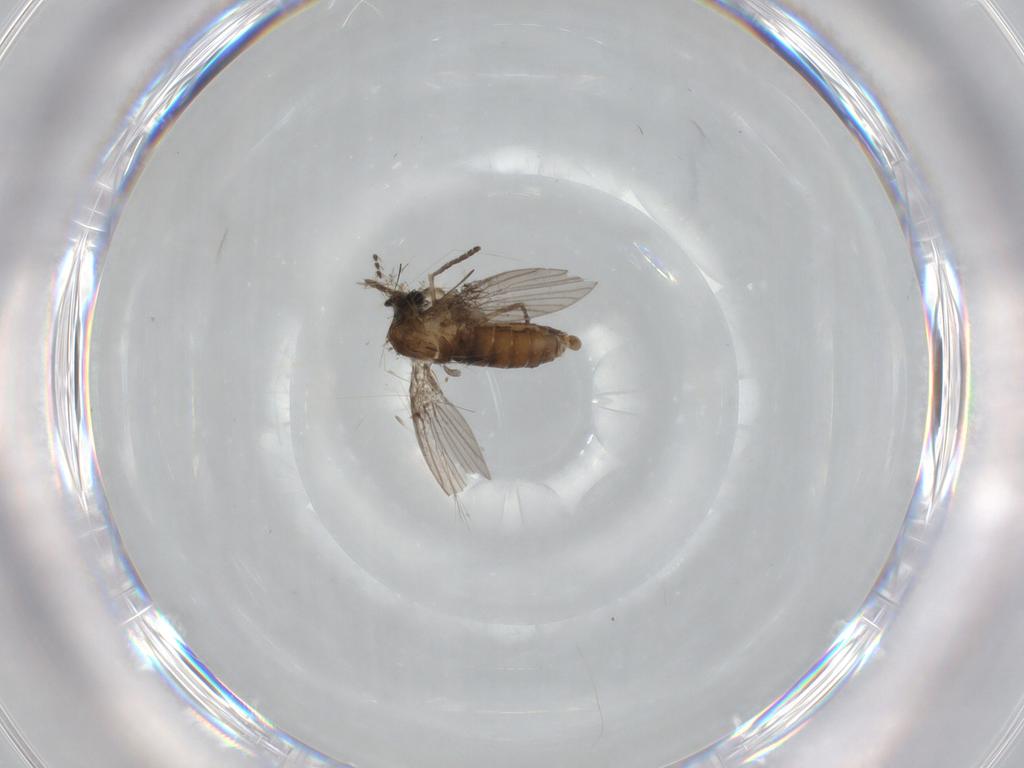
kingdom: Animalia
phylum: Arthropoda
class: Insecta
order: Diptera
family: Psychodidae
